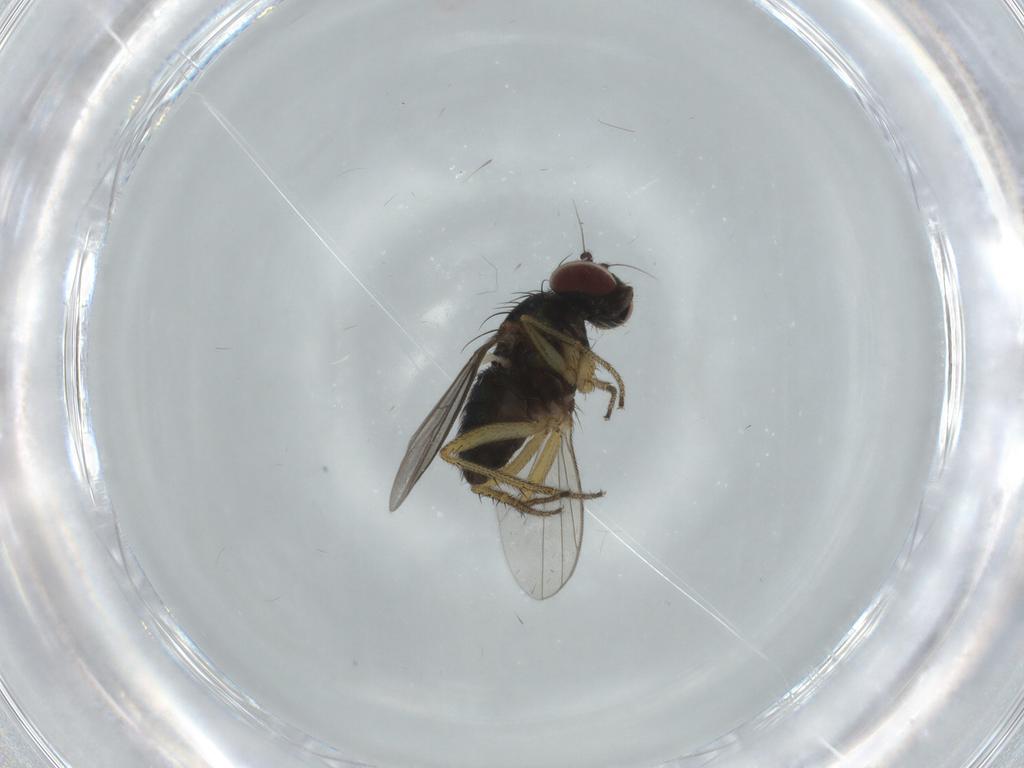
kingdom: Animalia
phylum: Arthropoda
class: Insecta
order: Diptera
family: Dolichopodidae
